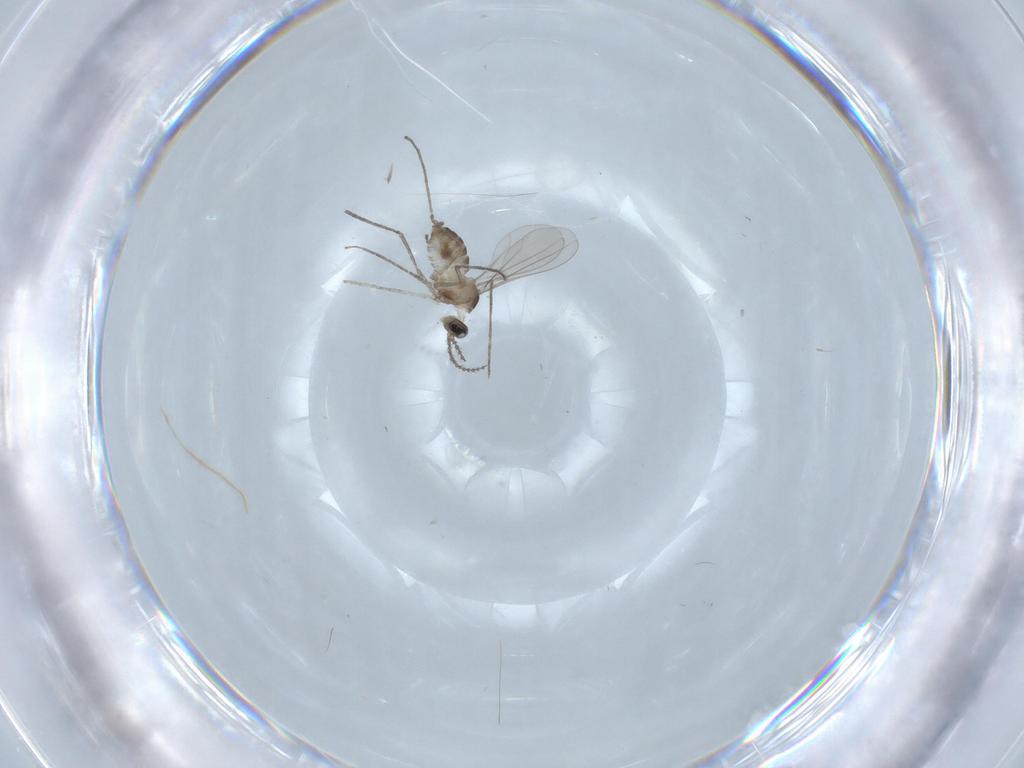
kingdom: Animalia
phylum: Arthropoda
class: Insecta
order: Diptera
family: Cecidomyiidae
